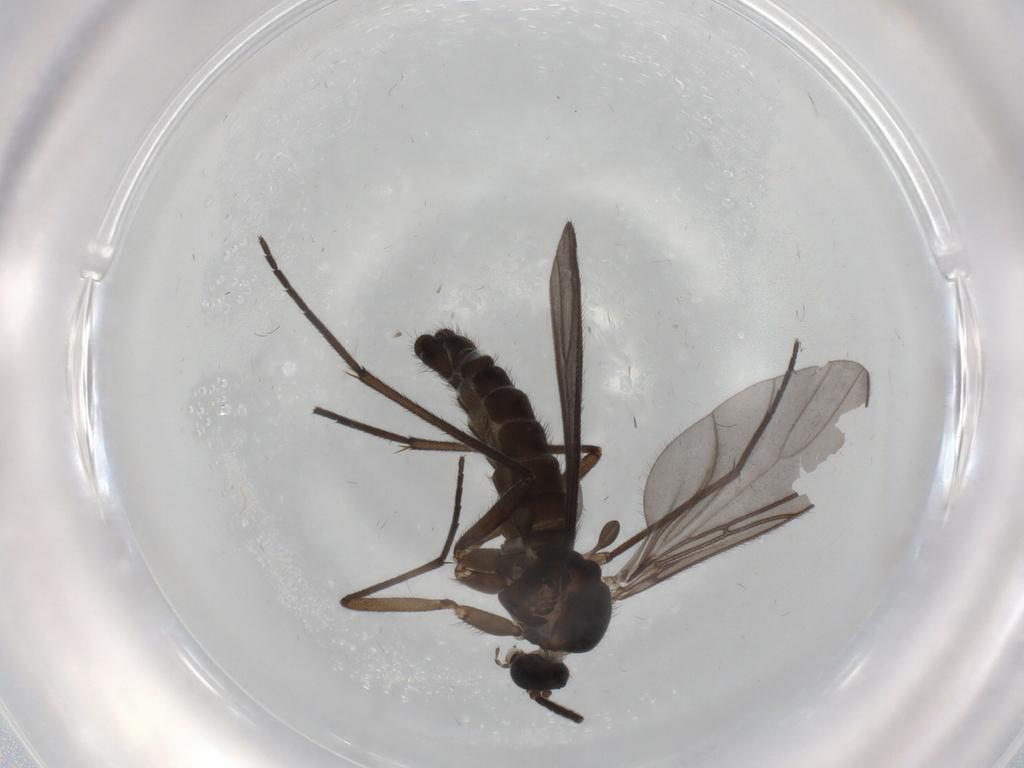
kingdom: Animalia
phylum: Arthropoda
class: Insecta
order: Diptera
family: Sciaridae
